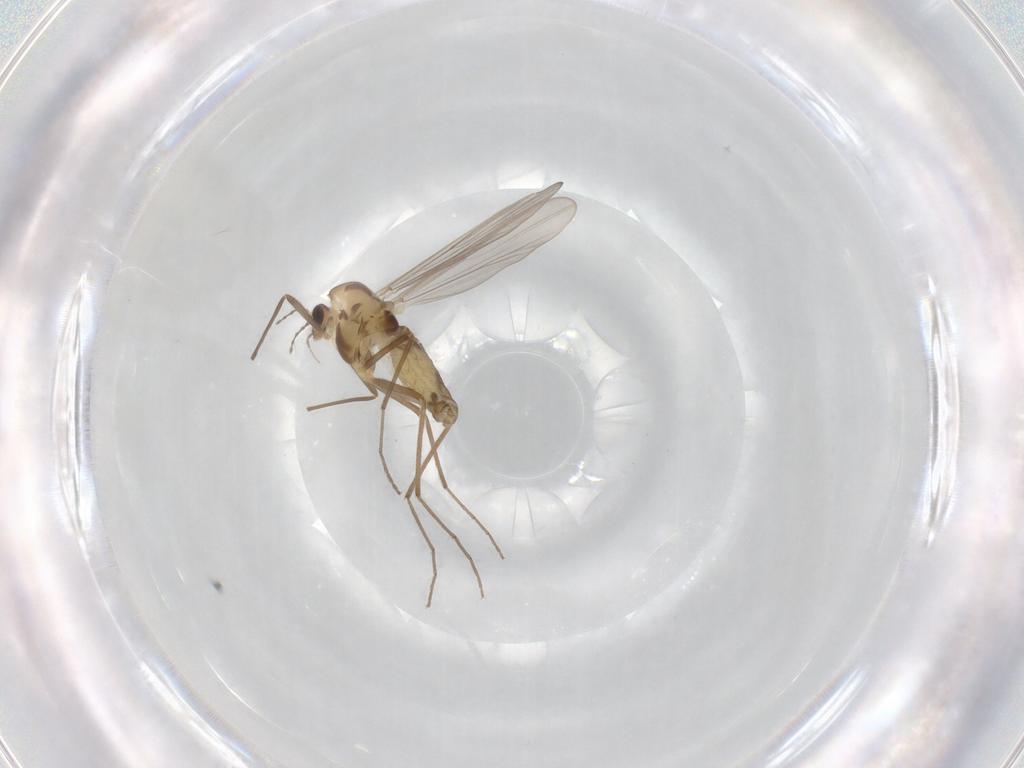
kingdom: Animalia
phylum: Arthropoda
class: Insecta
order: Diptera
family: Chironomidae
